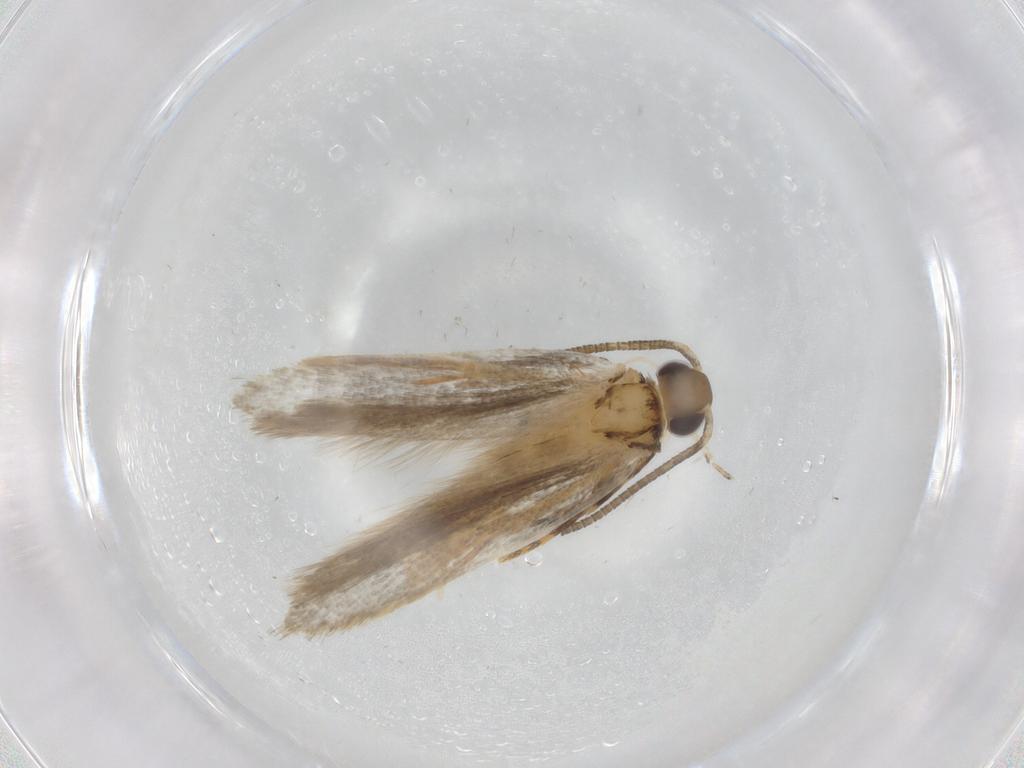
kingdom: Animalia
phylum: Arthropoda
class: Insecta
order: Lepidoptera
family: Autostichidae
